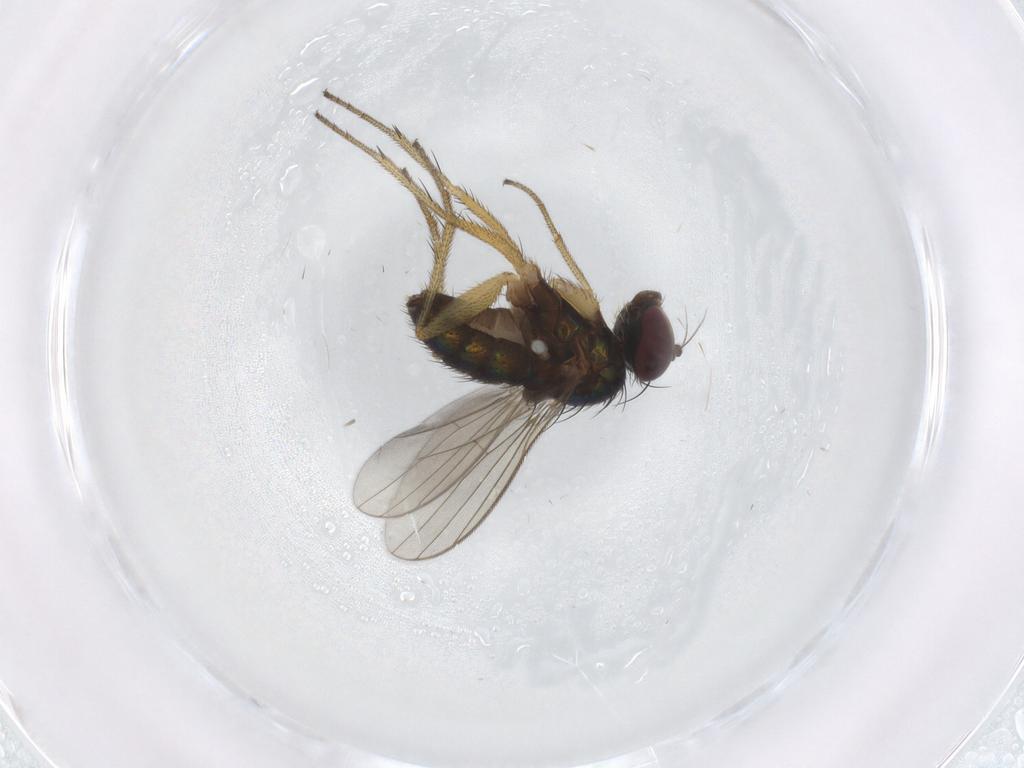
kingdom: Animalia
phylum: Arthropoda
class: Insecta
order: Diptera
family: Dolichopodidae
